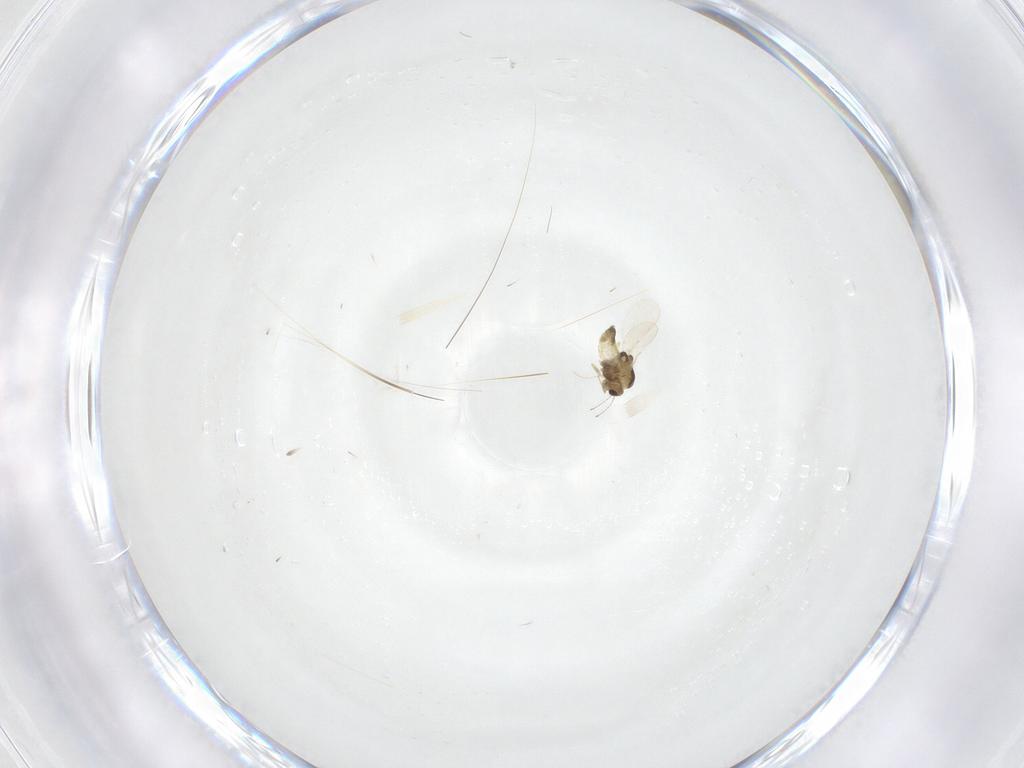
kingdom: Animalia
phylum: Arthropoda
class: Insecta
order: Diptera
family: Chironomidae
